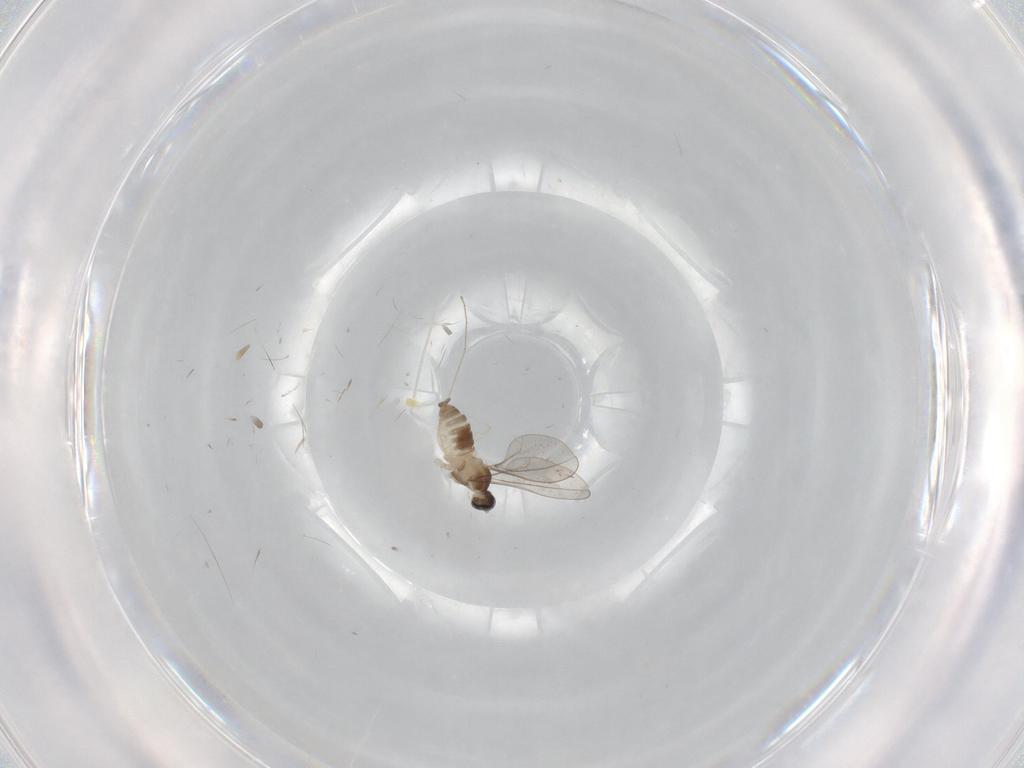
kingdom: Animalia
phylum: Arthropoda
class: Insecta
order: Diptera
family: Cecidomyiidae
